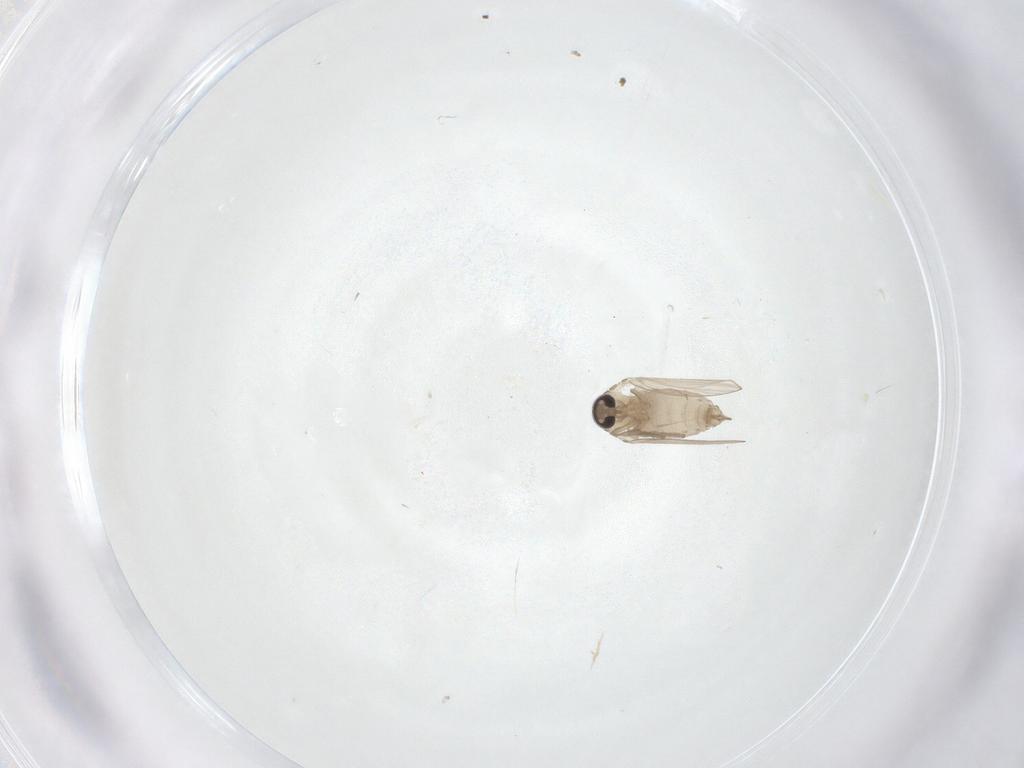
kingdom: Animalia
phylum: Arthropoda
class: Insecta
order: Diptera
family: Psychodidae
